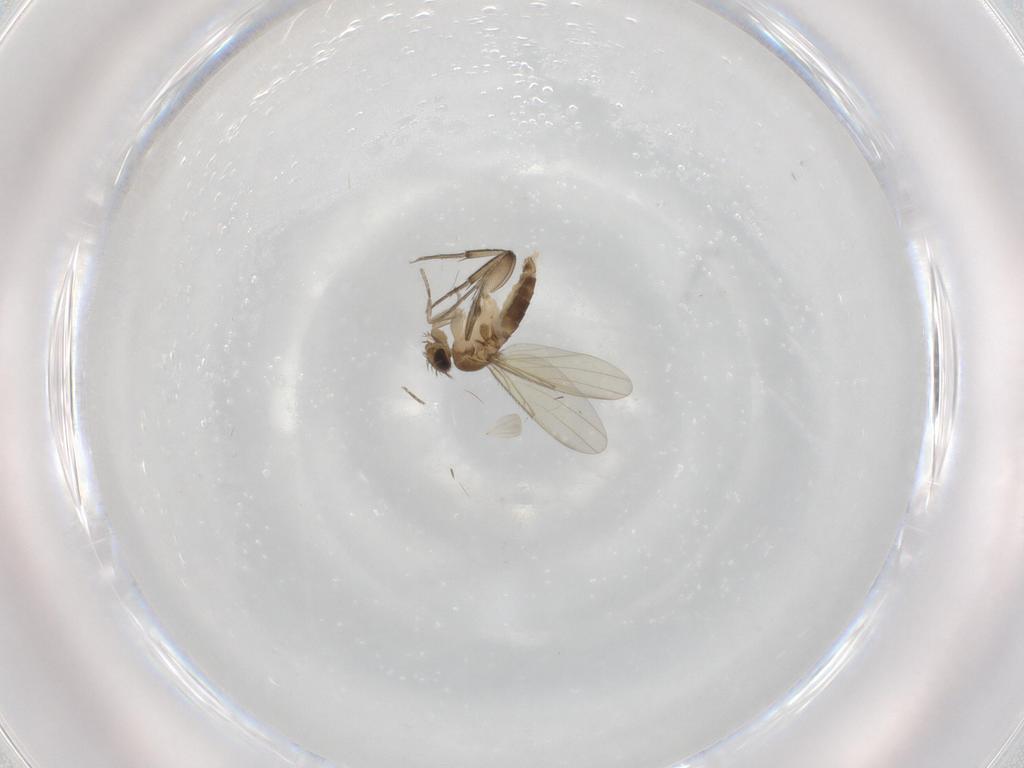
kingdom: Animalia
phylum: Arthropoda
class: Insecta
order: Diptera
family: Phoridae
